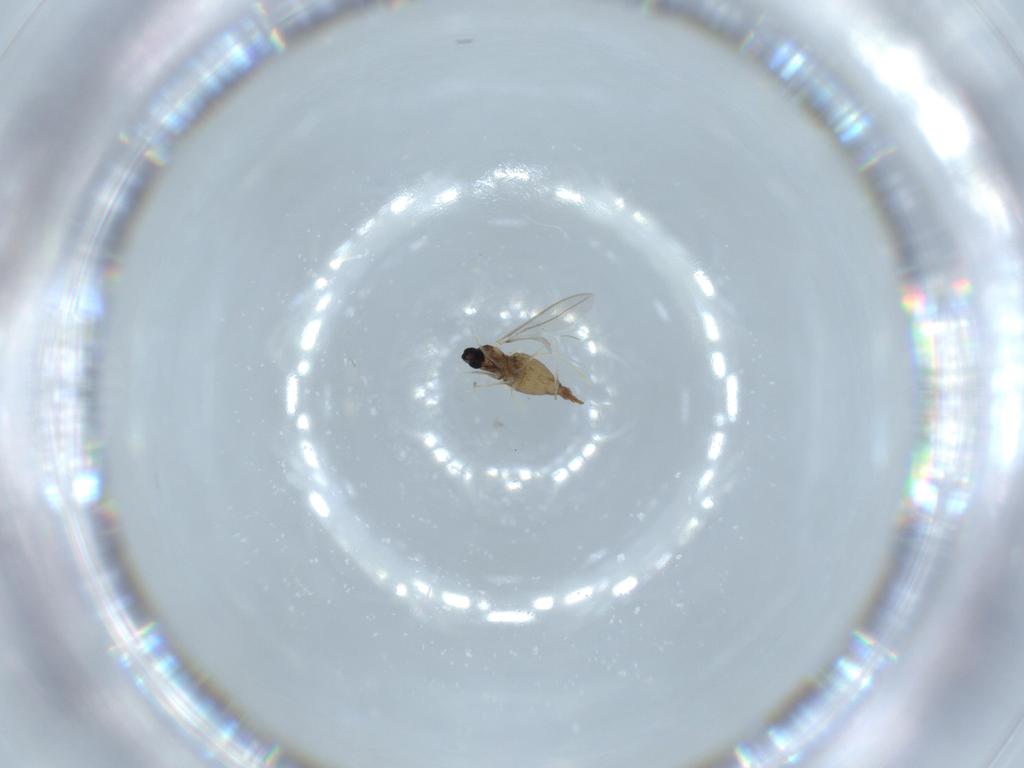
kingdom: Animalia
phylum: Arthropoda
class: Insecta
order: Diptera
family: Cecidomyiidae
